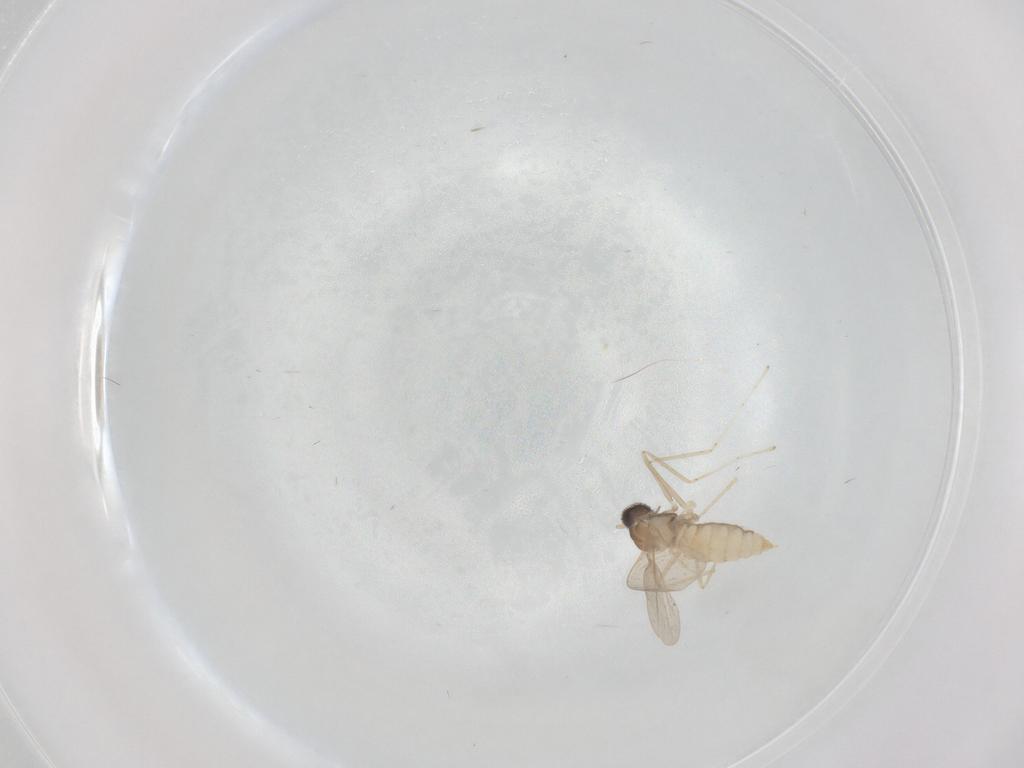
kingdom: Animalia
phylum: Arthropoda
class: Insecta
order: Diptera
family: Cecidomyiidae
